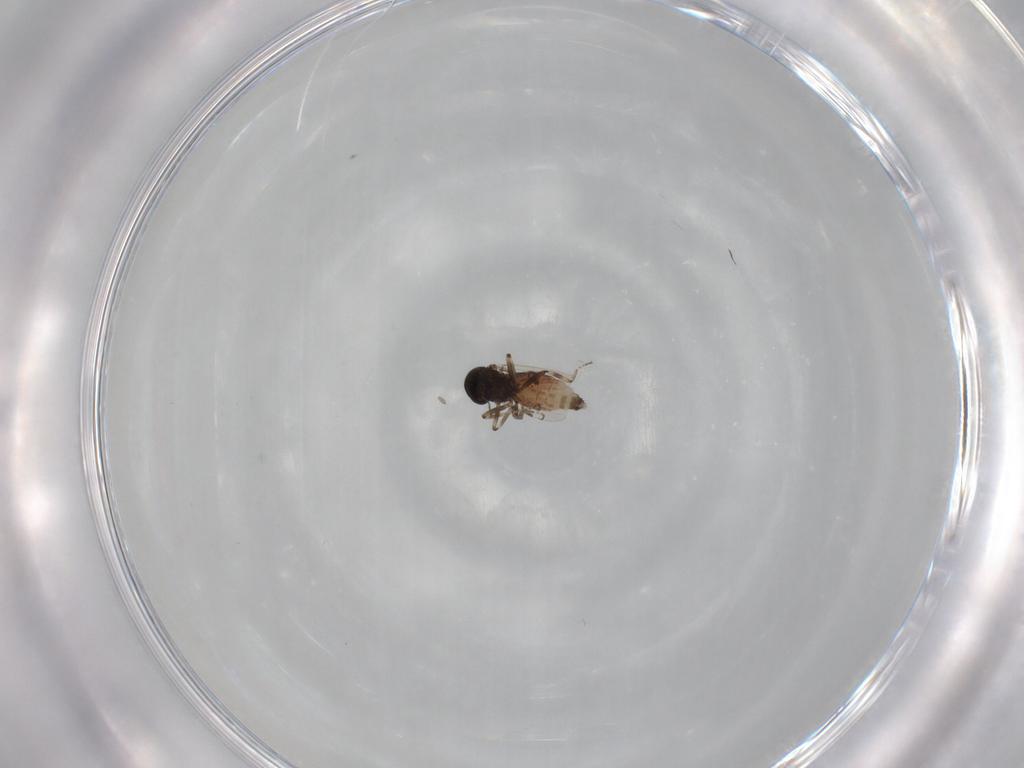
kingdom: Animalia
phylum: Arthropoda
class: Insecta
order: Diptera
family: Ceratopogonidae
